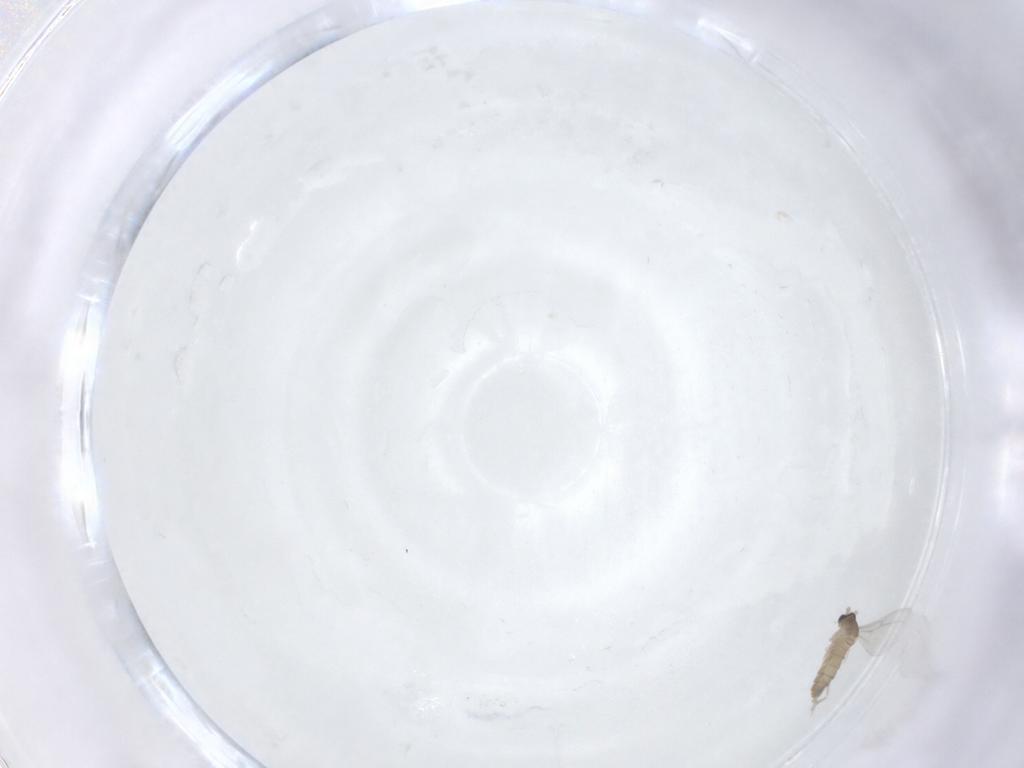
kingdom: Animalia
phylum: Arthropoda
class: Insecta
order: Diptera
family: Cecidomyiidae
